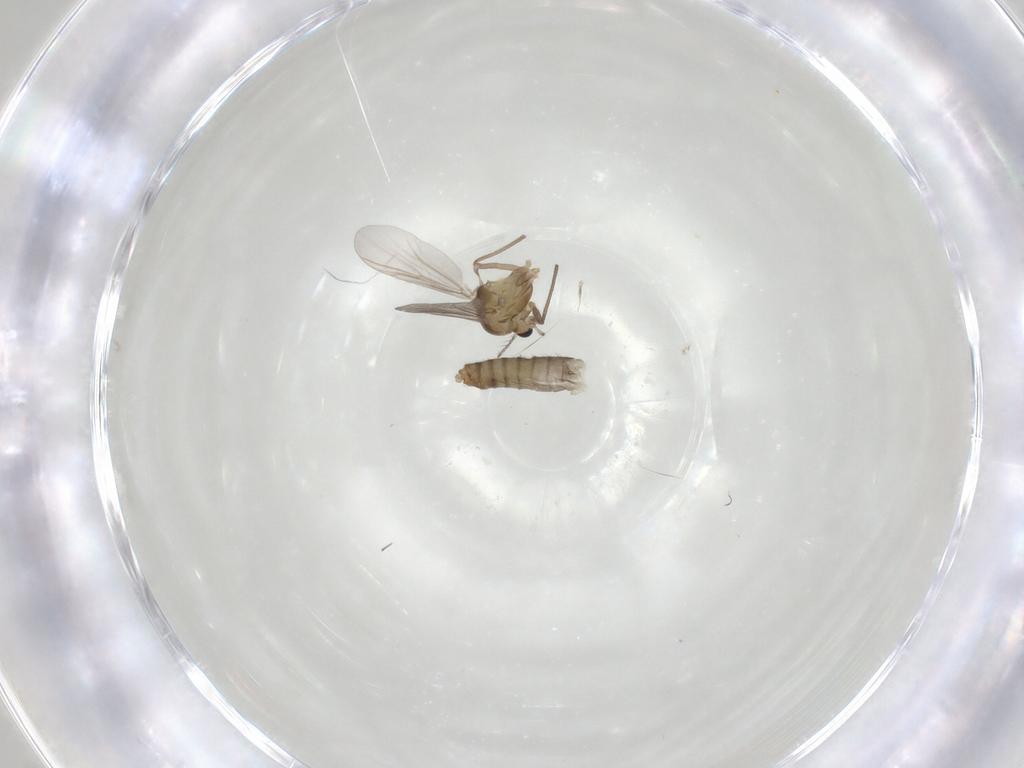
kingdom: Animalia
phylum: Arthropoda
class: Insecta
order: Diptera
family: Chironomidae
